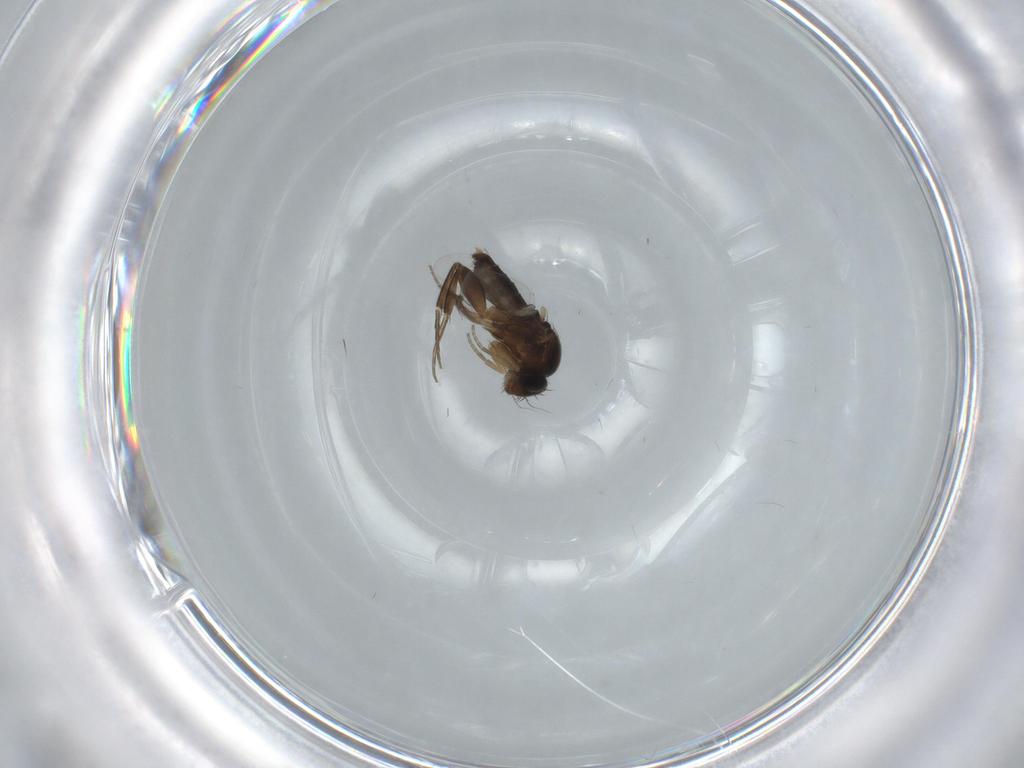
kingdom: Animalia
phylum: Arthropoda
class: Insecta
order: Diptera
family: Phoridae
